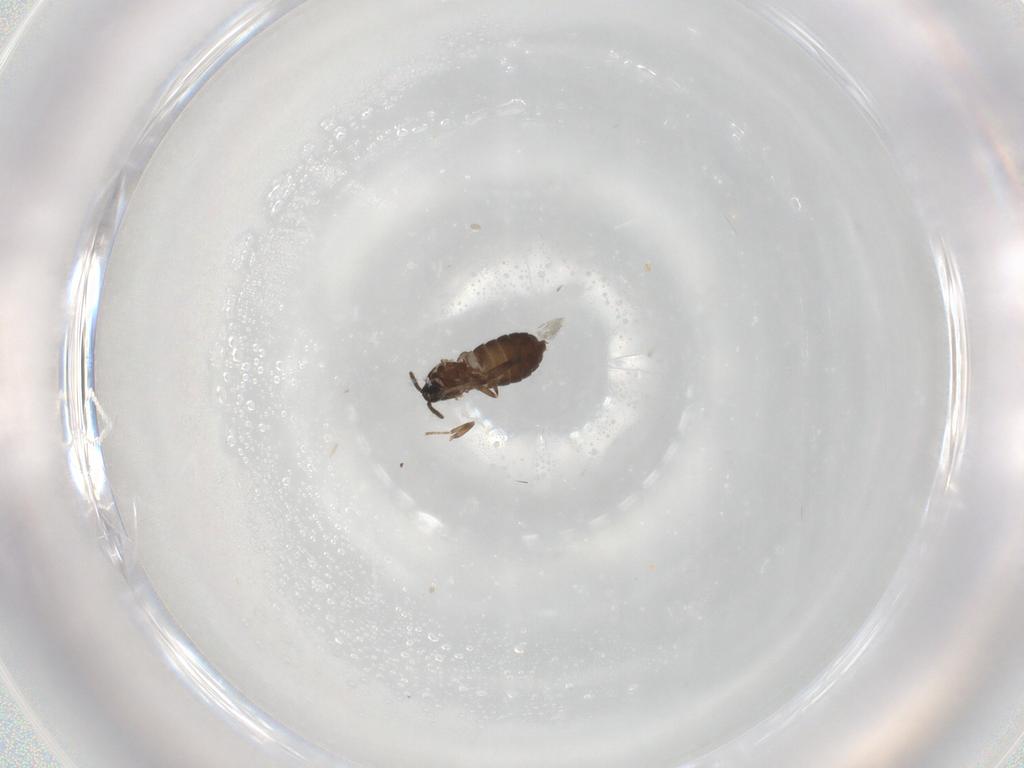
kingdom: Animalia
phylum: Arthropoda
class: Insecta
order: Diptera
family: Scatopsidae
